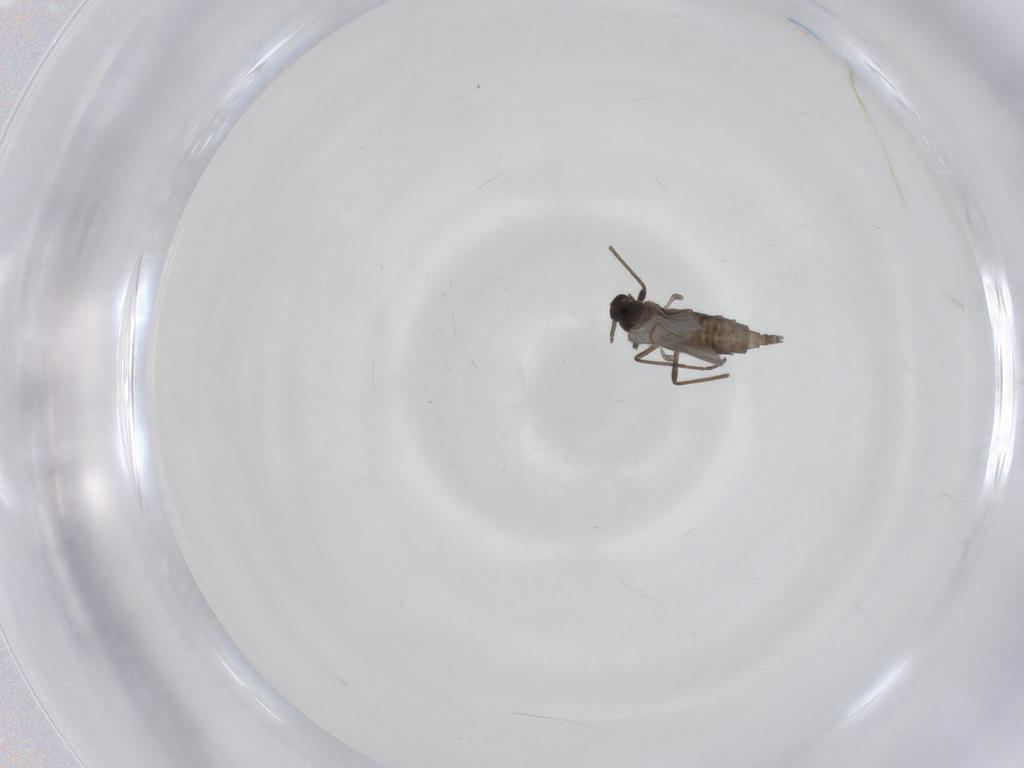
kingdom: Animalia
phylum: Arthropoda
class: Insecta
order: Diptera
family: Cecidomyiidae
